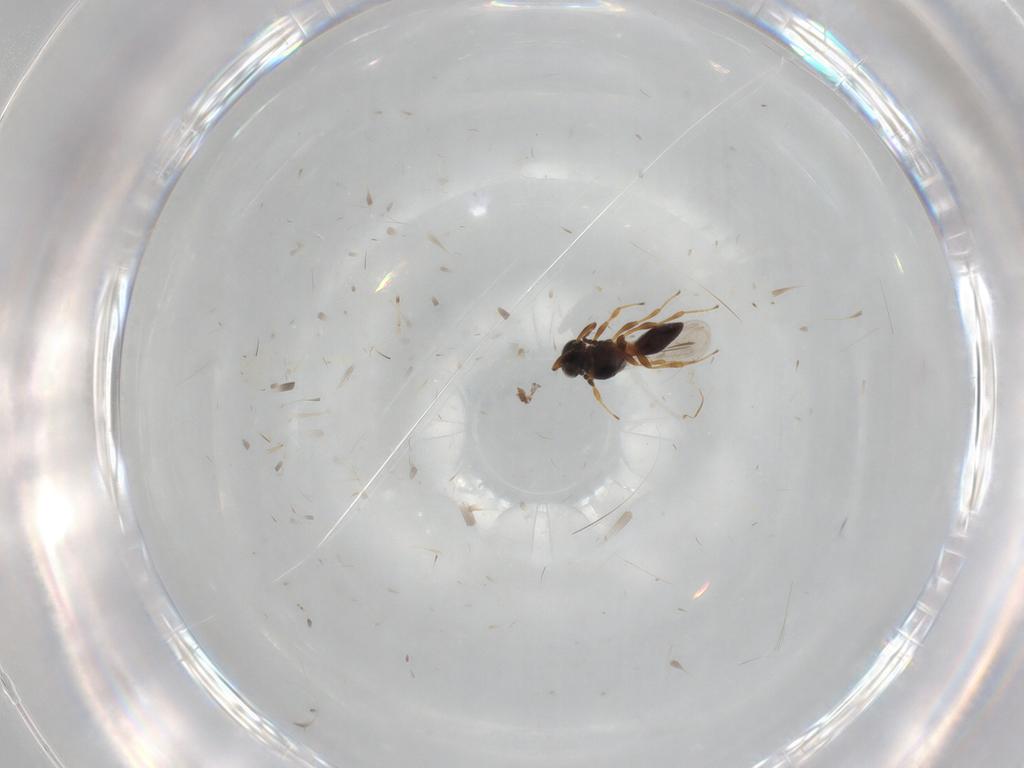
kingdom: Animalia
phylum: Arthropoda
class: Insecta
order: Hymenoptera
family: Platygastridae
